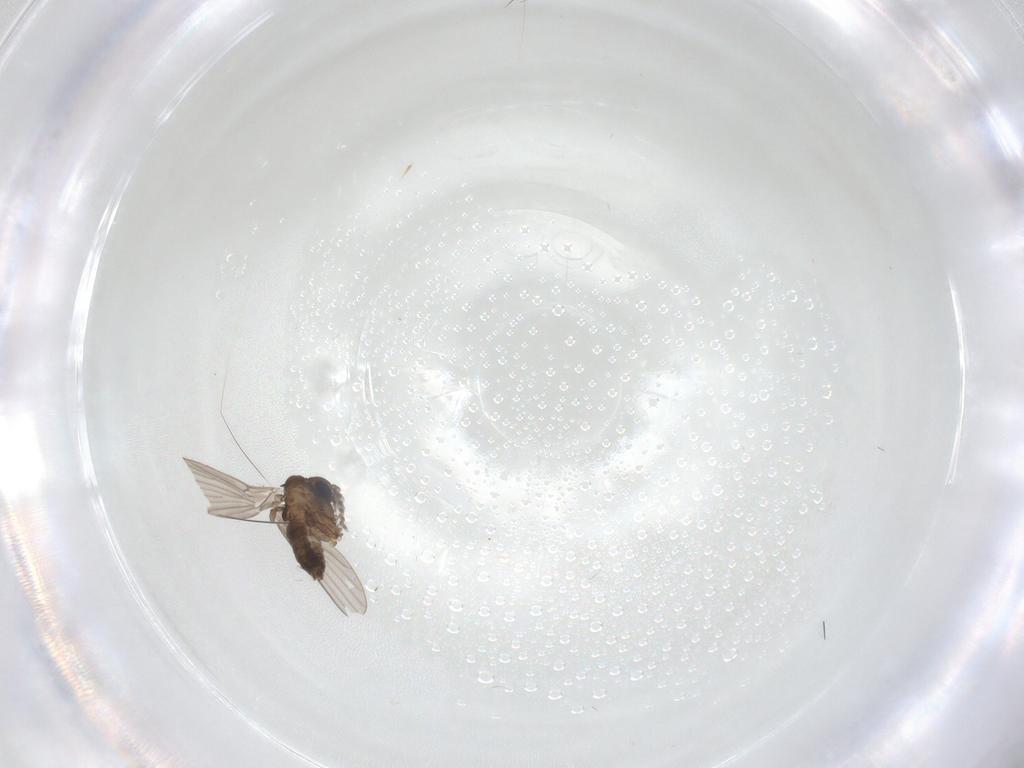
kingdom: Animalia
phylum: Arthropoda
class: Insecta
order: Diptera
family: Psychodidae
